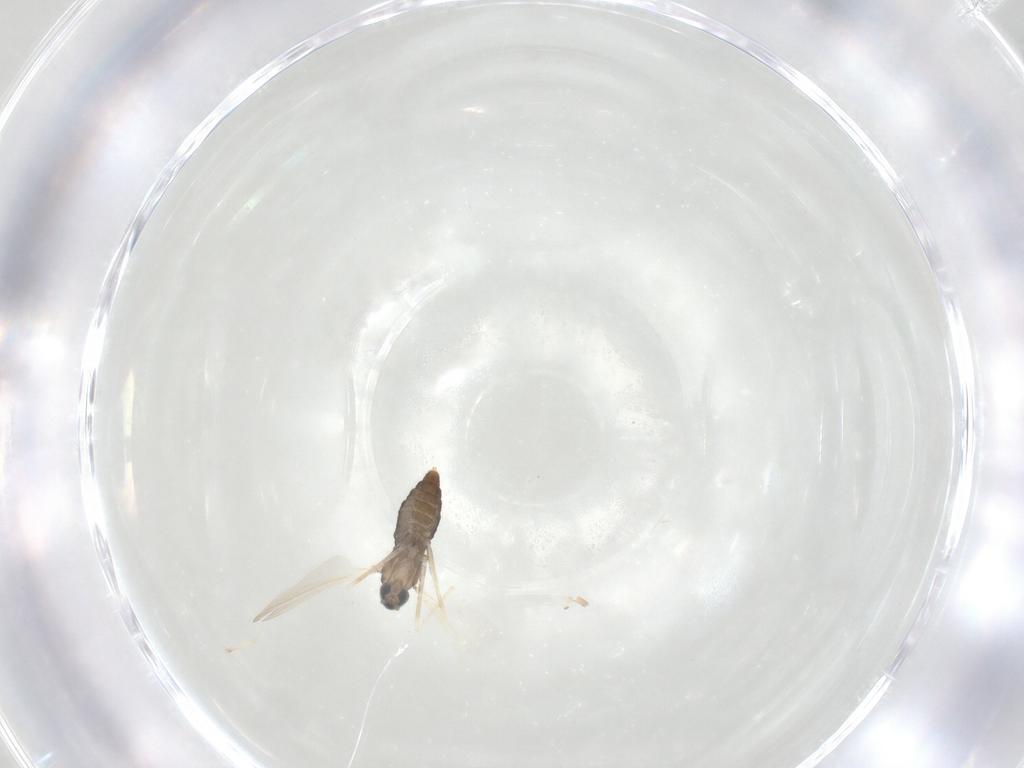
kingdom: Animalia
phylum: Arthropoda
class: Insecta
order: Diptera
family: Cecidomyiidae
